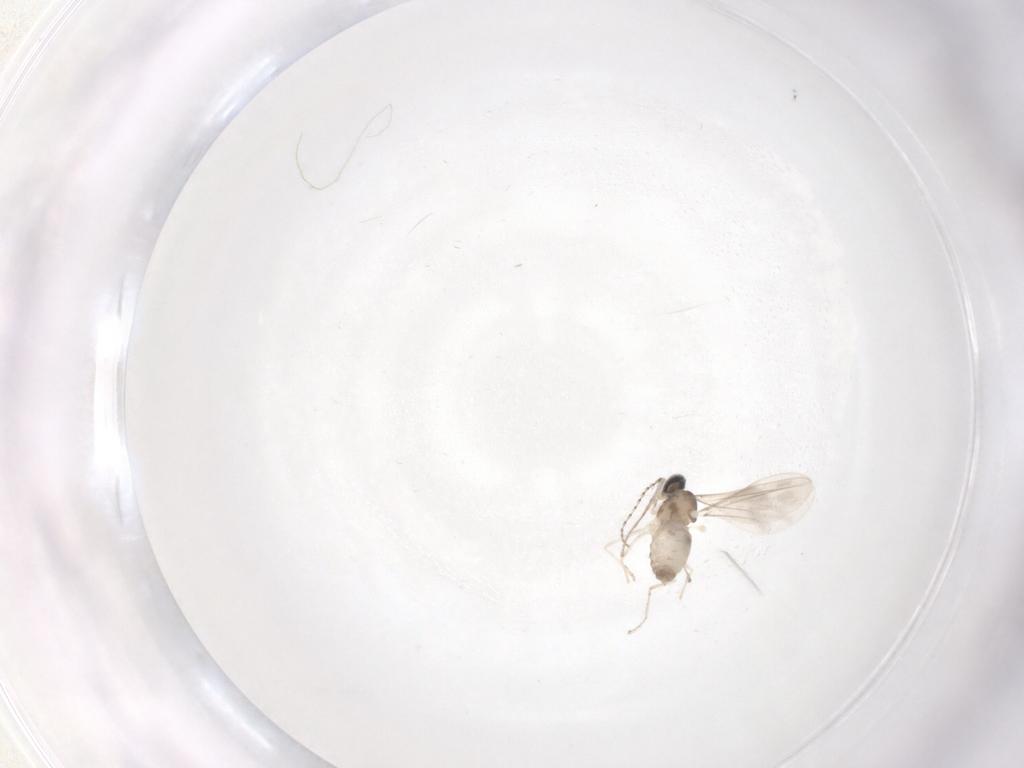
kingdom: Animalia
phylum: Arthropoda
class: Insecta
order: Diptera
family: Cecidomyiidae
